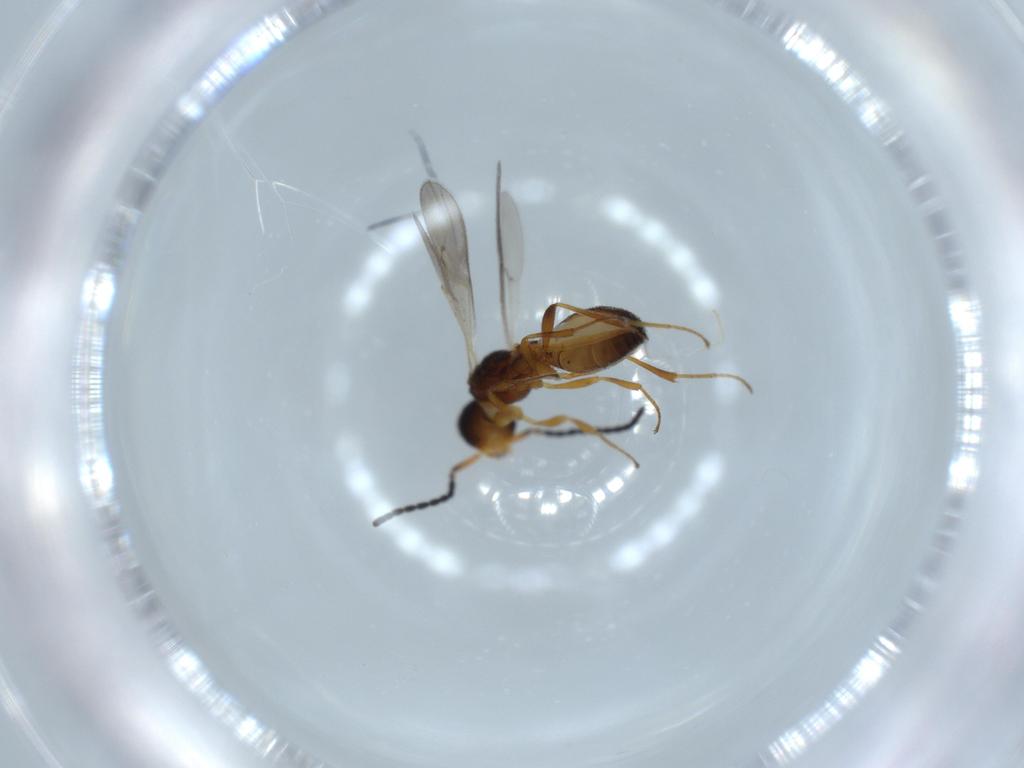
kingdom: Animalia
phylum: Arthropoda
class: Insecta
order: Hymenoptera
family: Scelionidae
